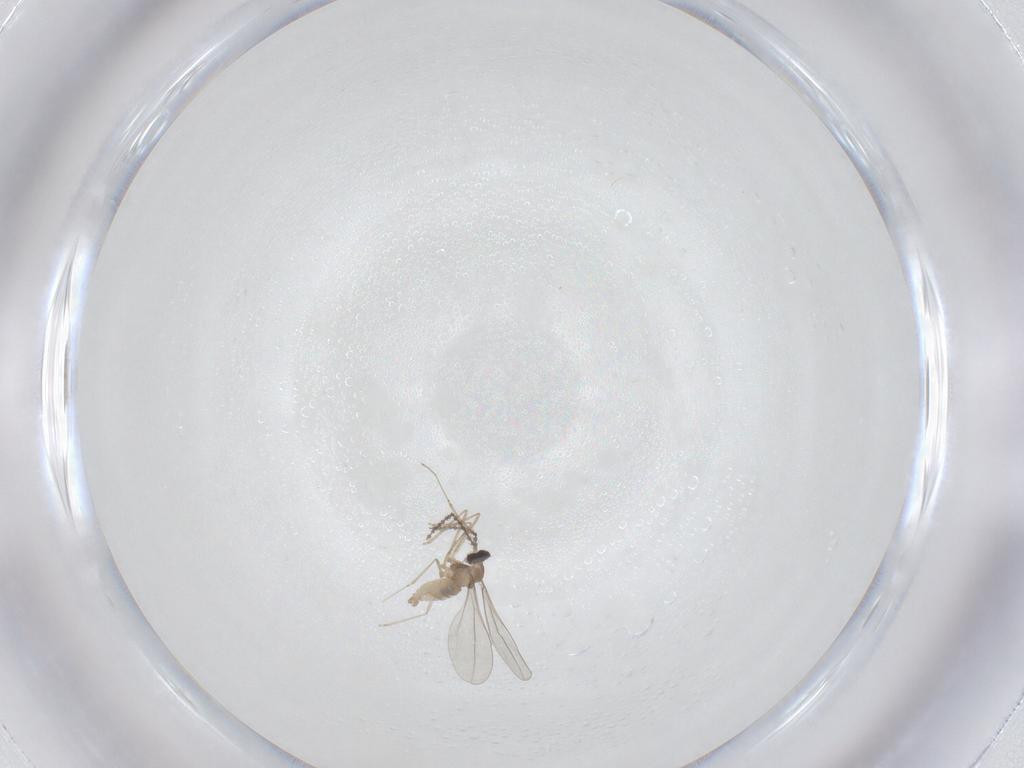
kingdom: Animalia
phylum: Arthropoda
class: Insecta
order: Diptera
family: Cecidomyiidae
